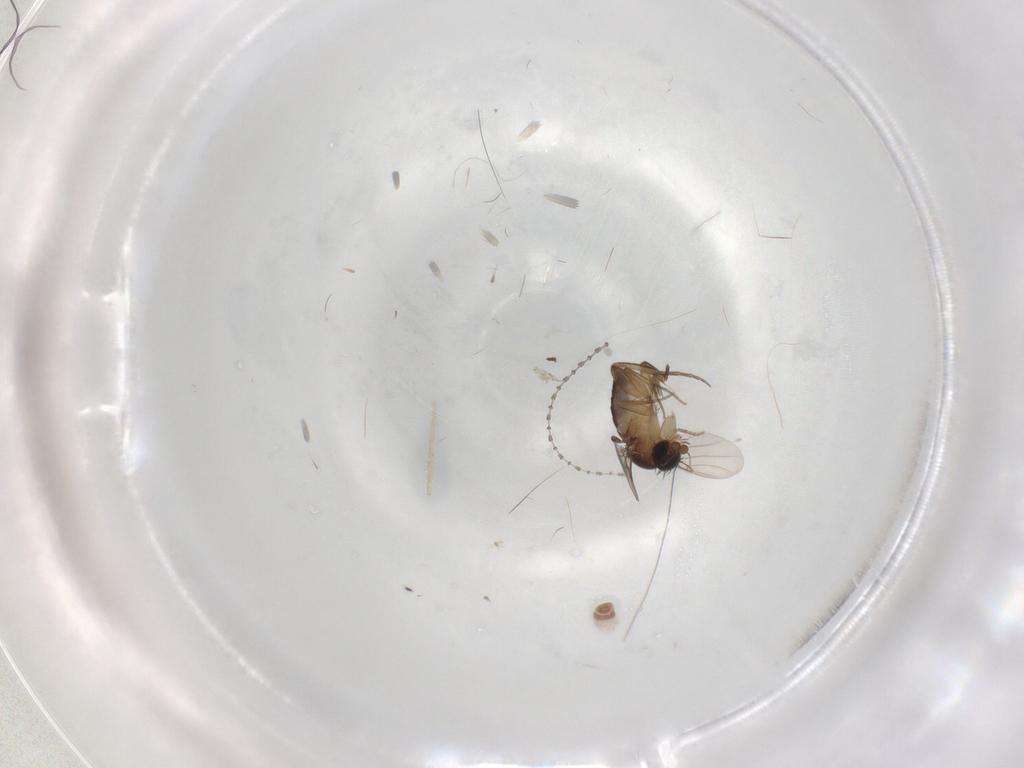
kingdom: Animalia
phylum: Arthropoda
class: Insecta
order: Diptera
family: Phoridae
